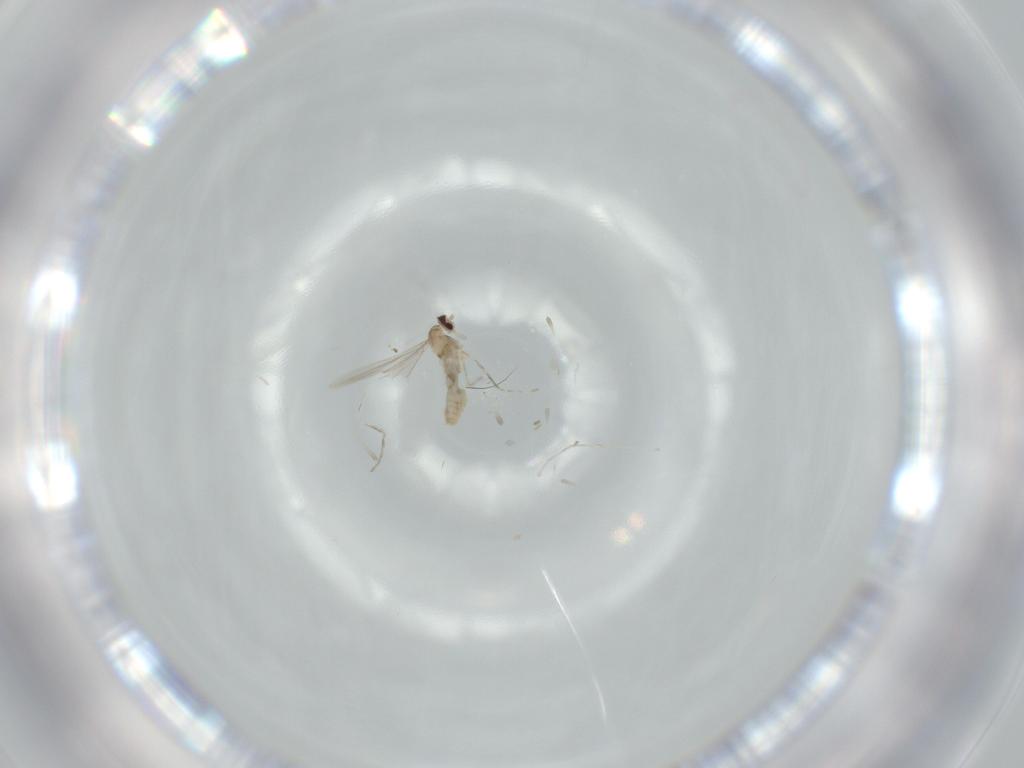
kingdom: Animalia
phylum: Arthropoda
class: Insecta
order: Diptera
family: Cecidomyiidae
